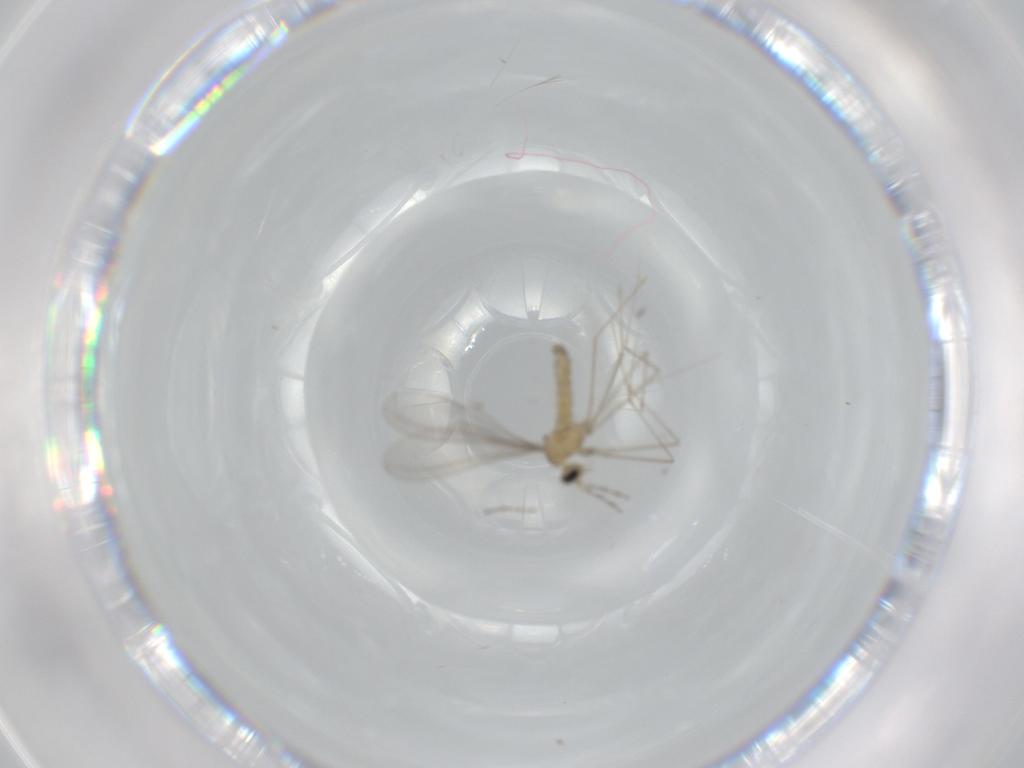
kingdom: Animalia
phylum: Arthropoda
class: Insecta
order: Diptera
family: Cecidomyiidae
